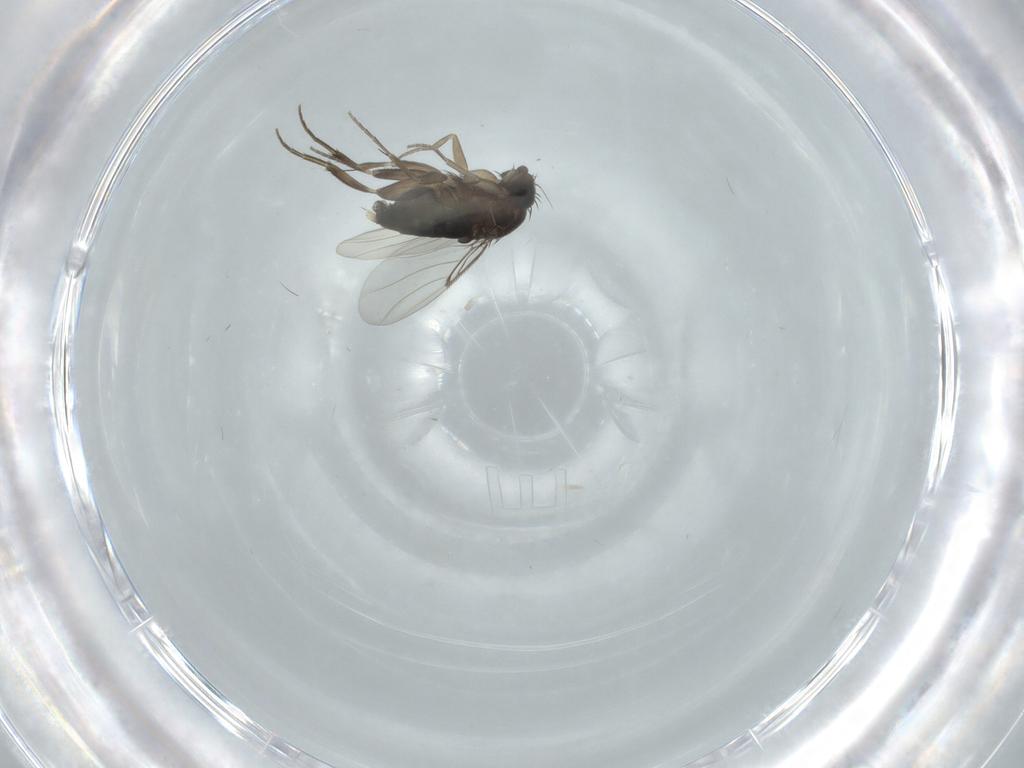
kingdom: Animalia
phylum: Arthropoda
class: Insecta
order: Diptera
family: Phoridae
